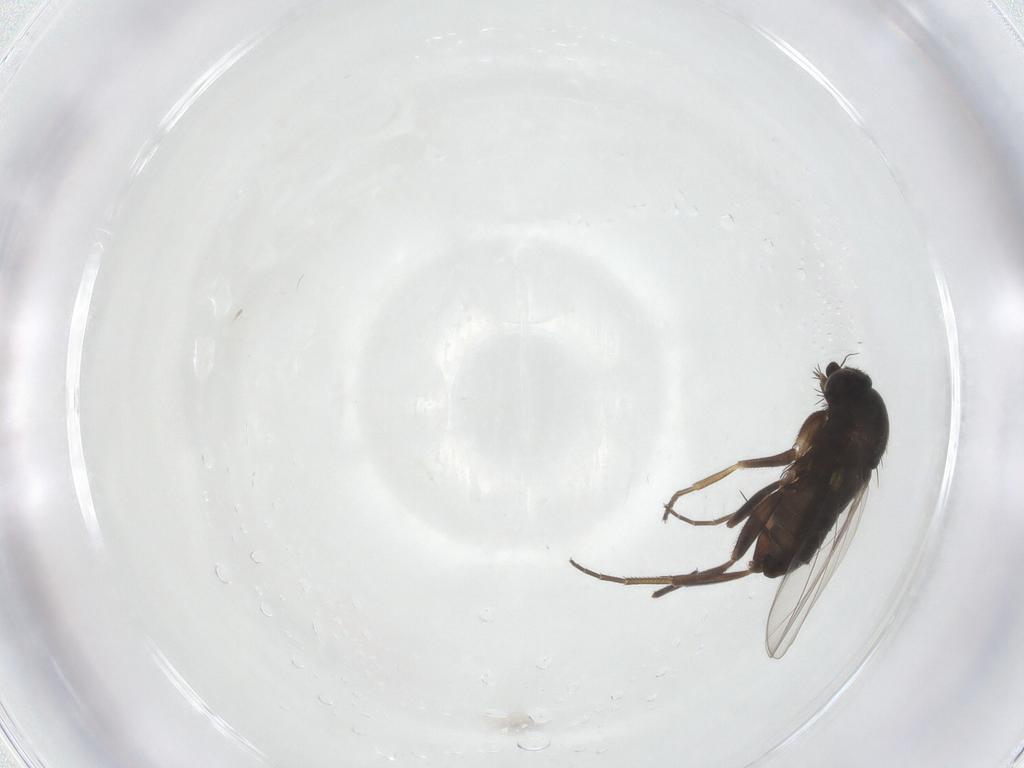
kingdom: Animalia
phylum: Arthropoda
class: Insecta
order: Diptera
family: Phoridae
